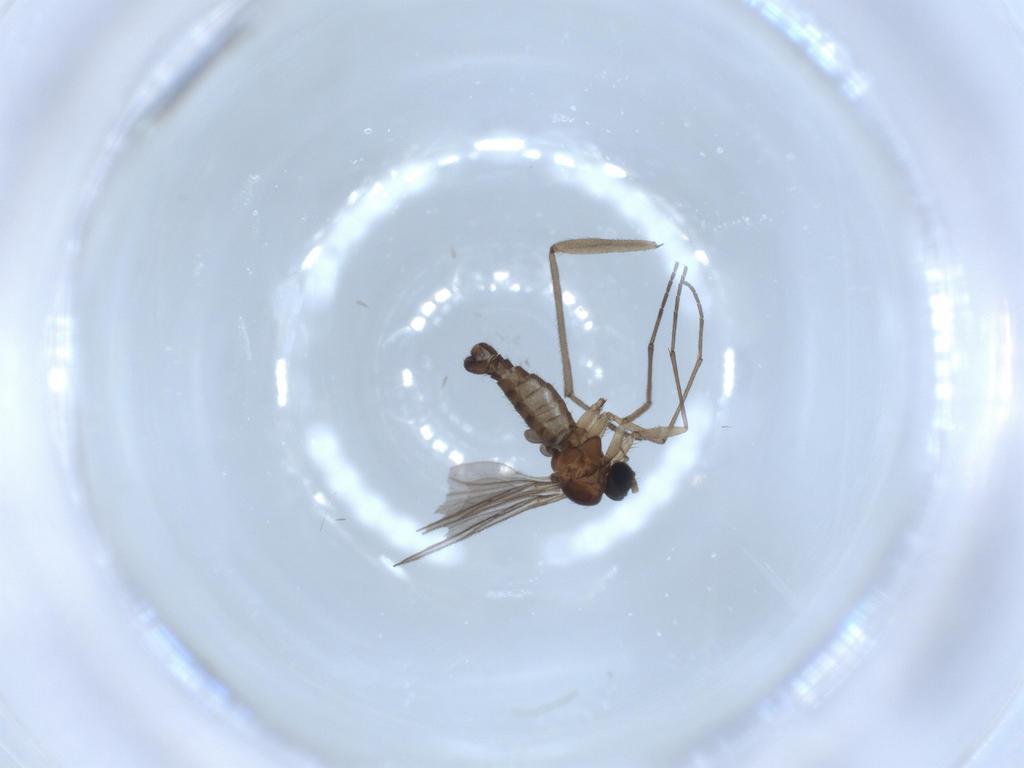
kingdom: Animalia
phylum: Arthropoda
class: Insecta
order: Diptera
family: Sciaridae
